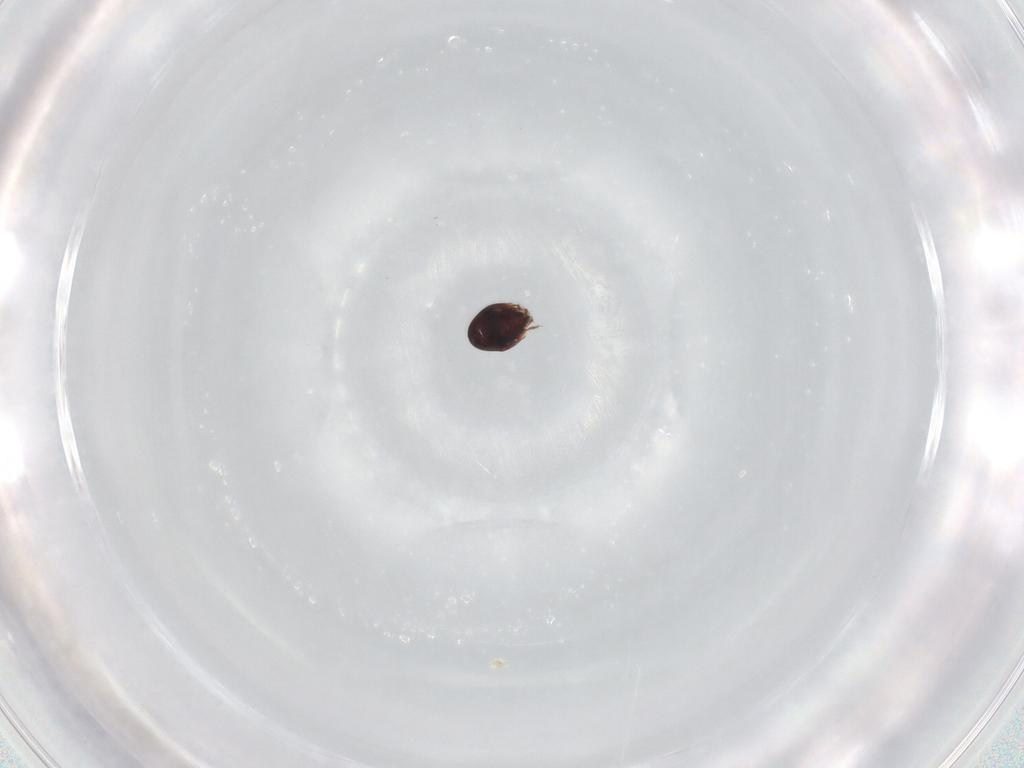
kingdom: Animalia
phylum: Arthropoda
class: Arachnida
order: Sarcoptiformes
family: Achipteriidae
